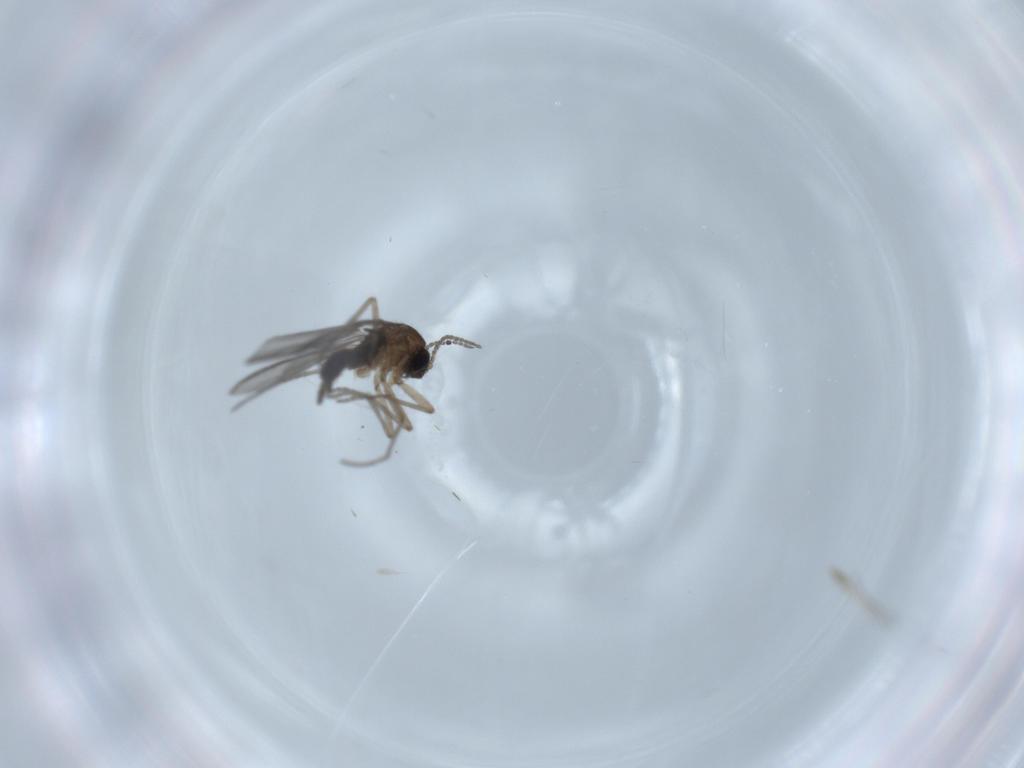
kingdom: Animalia
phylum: Arthropoda
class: Insecta
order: Diptera
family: Sciaridae
